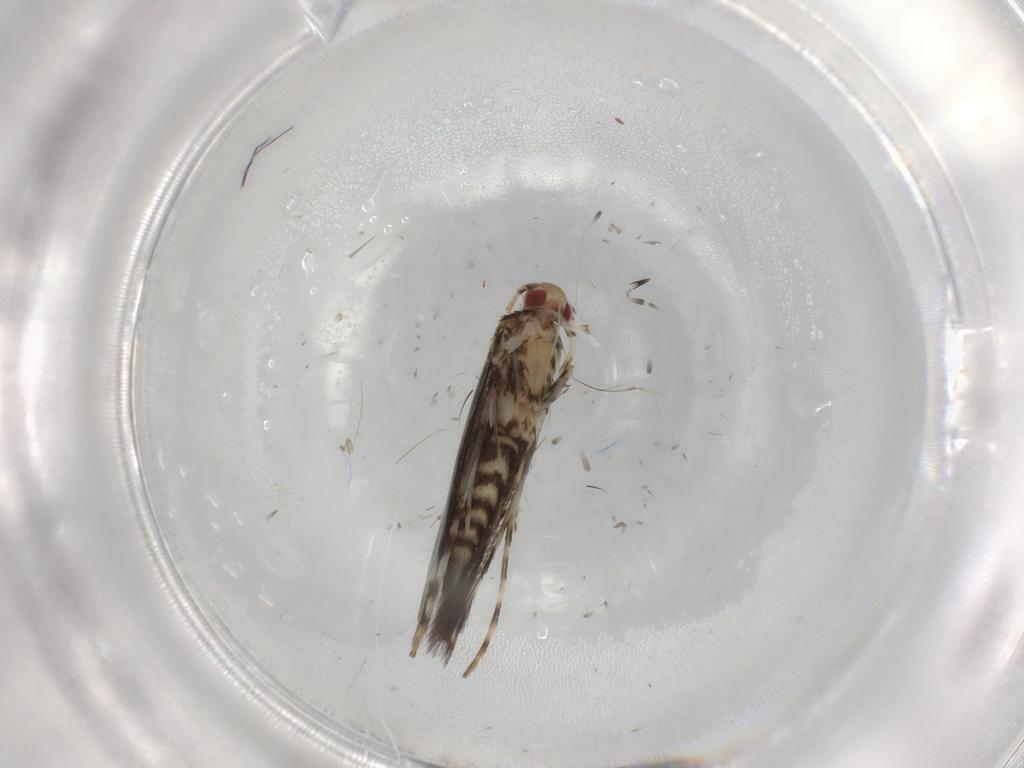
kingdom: Animalia
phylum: Arthropoda
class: Insecta
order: Lepidoptera
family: Gracillariidae
